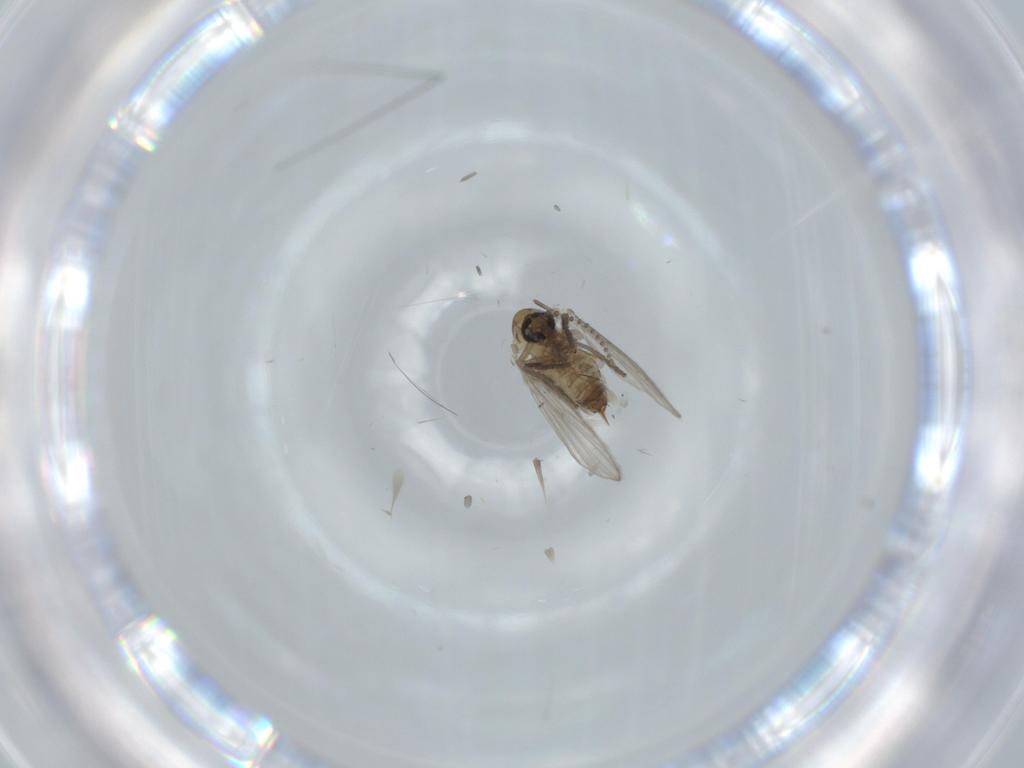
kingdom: Animalia
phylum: Arthropoda
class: Insecta
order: Diptera
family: Psychodidae
